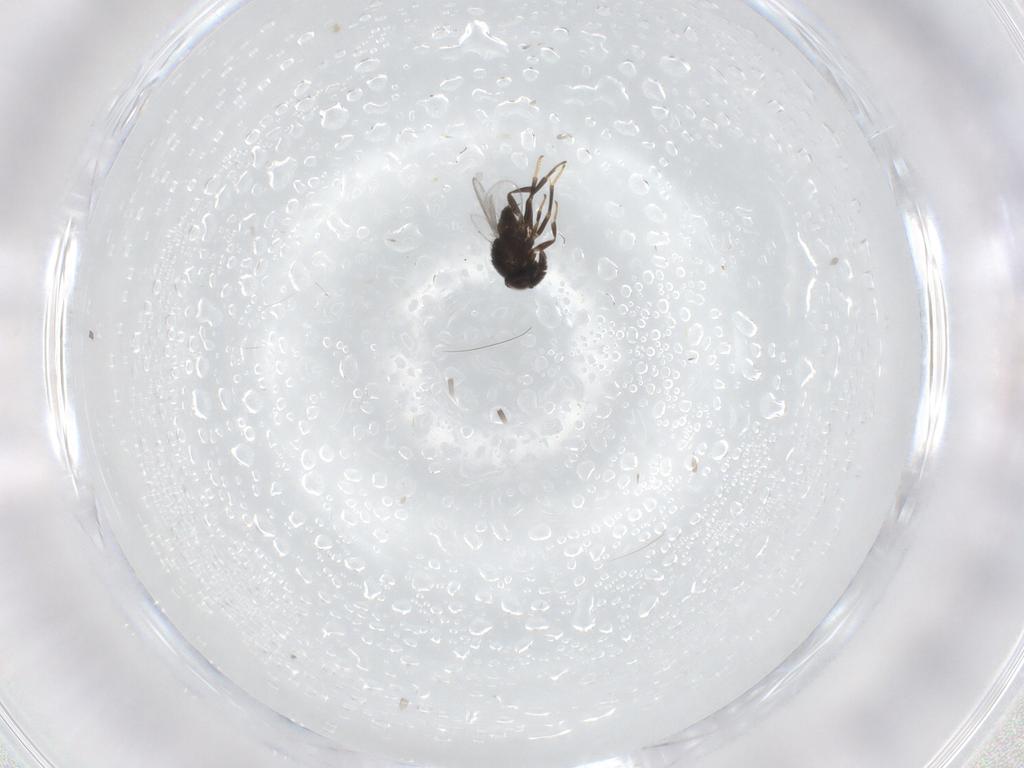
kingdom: Animalia
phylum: Arthropoda
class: Insecta
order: Diptera
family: Chironomidae
